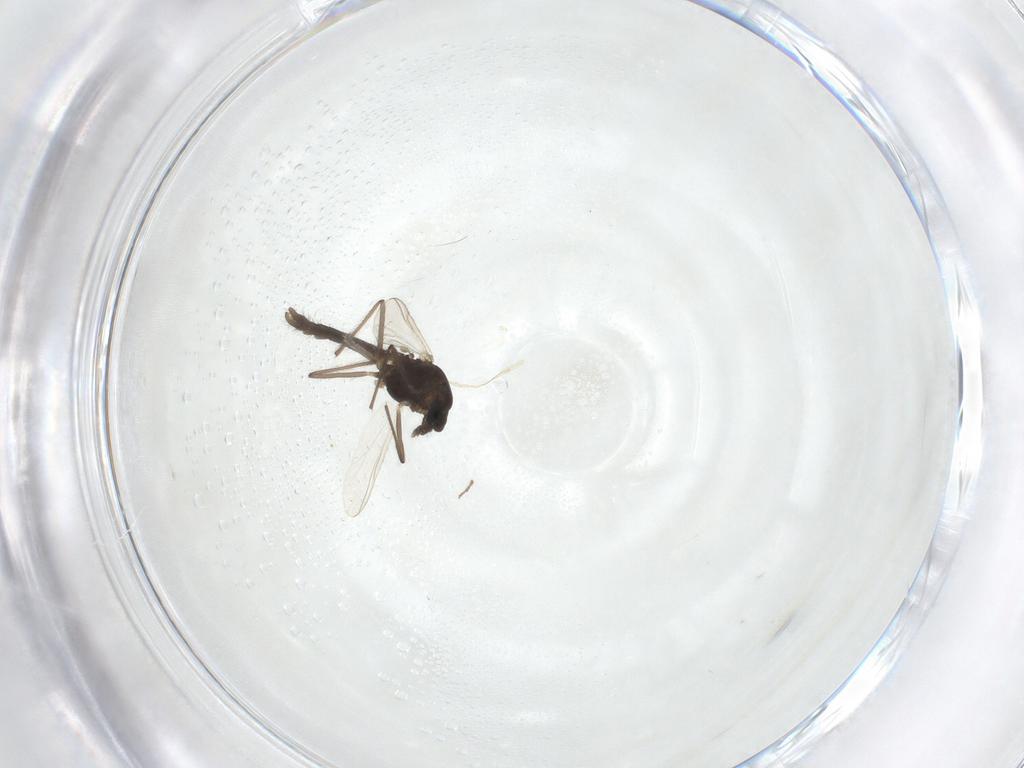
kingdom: Animalia
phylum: Arthropoda
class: Insecta
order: Diptera
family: Chironomidae
